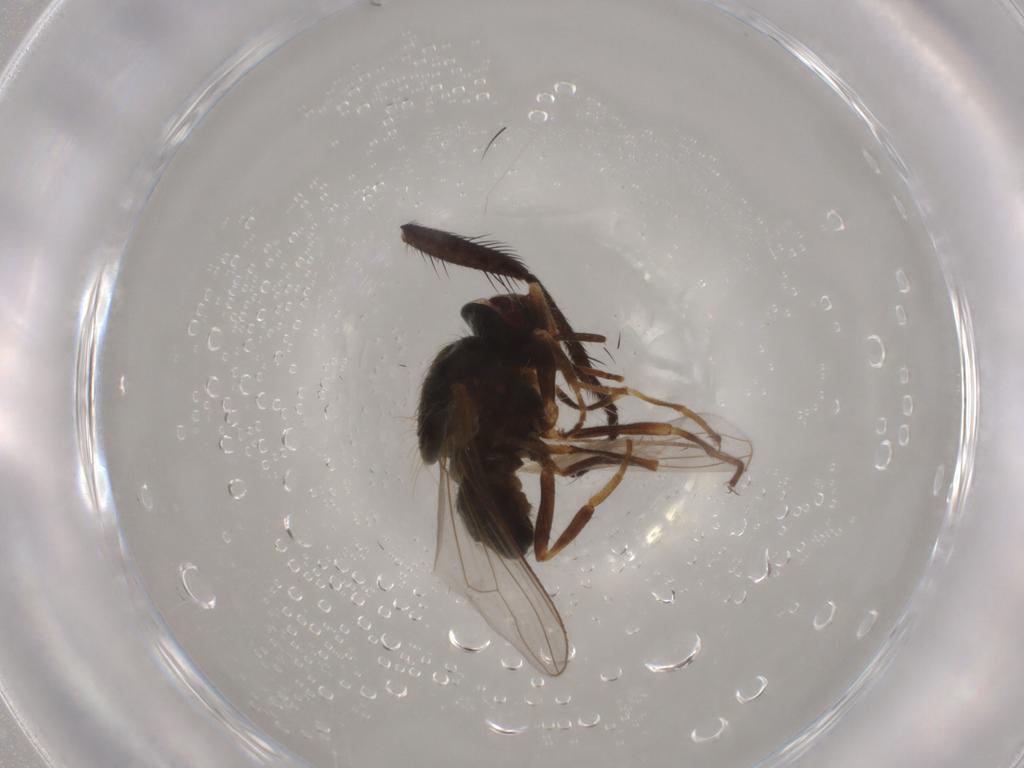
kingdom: Animalia
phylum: Arthropoda
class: Insecta
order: Diptera
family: Muscidae
